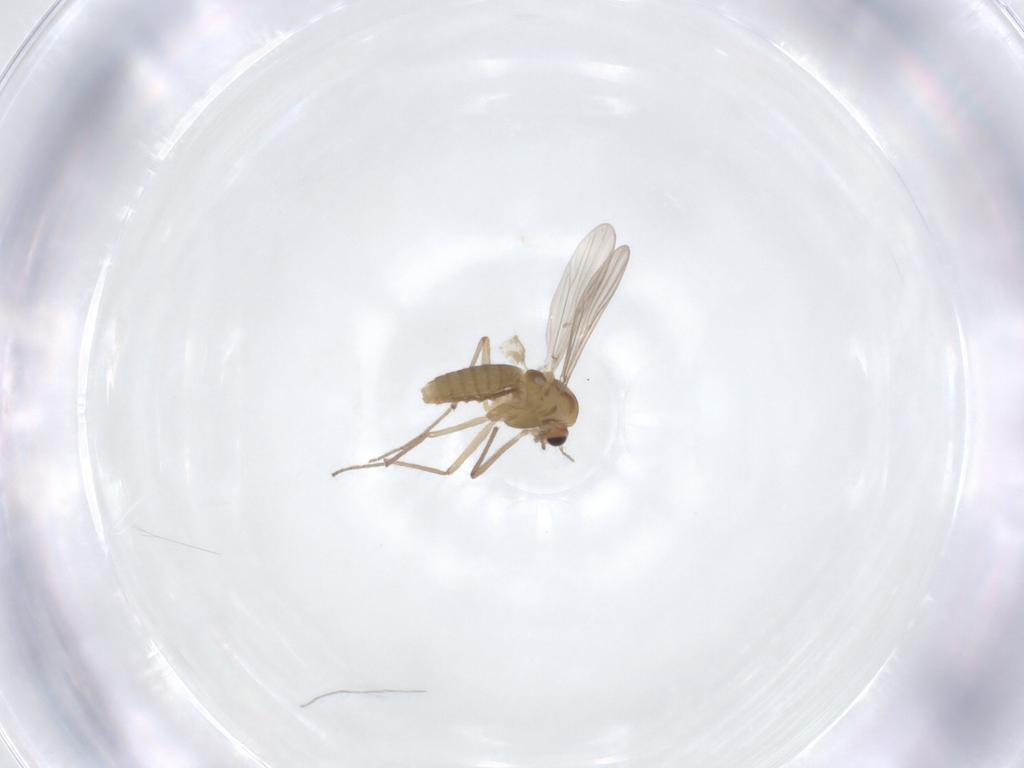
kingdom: Animalia
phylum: Arthropoda
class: Insecta
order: Diptera
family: Chironomidae
